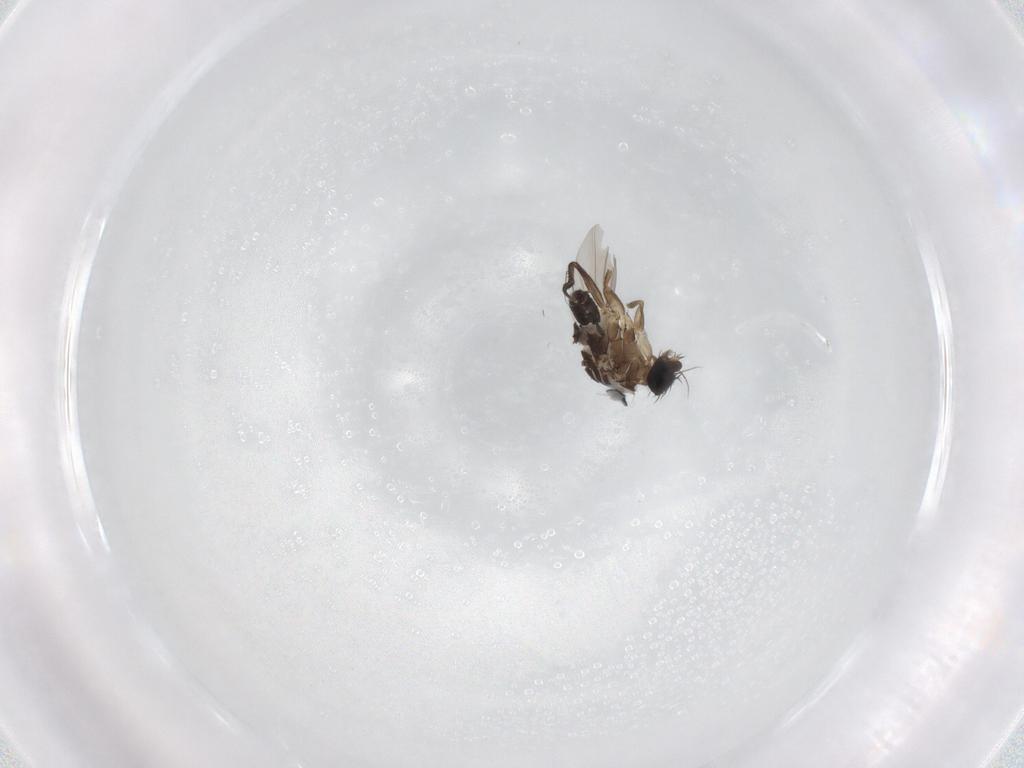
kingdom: Animalia
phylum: Arthropoda
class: Insecta
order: Diptera
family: Phoridae
